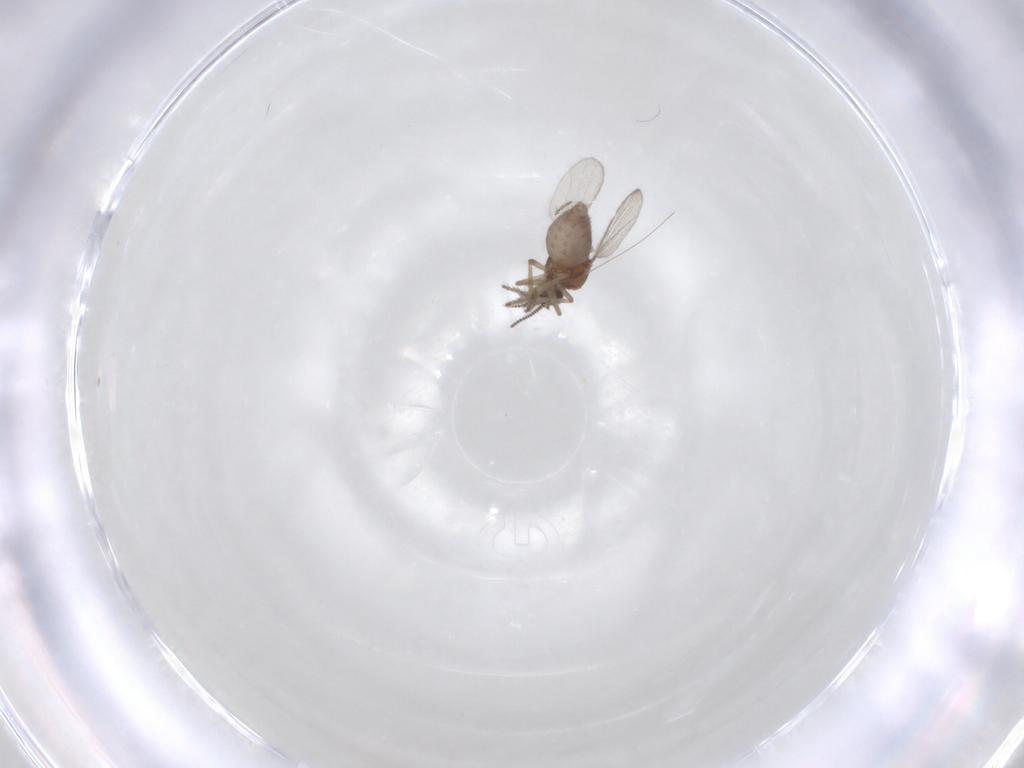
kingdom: Animalia
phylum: Arthropoda
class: Insecta
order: Diptera
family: Ceratopogonidae
